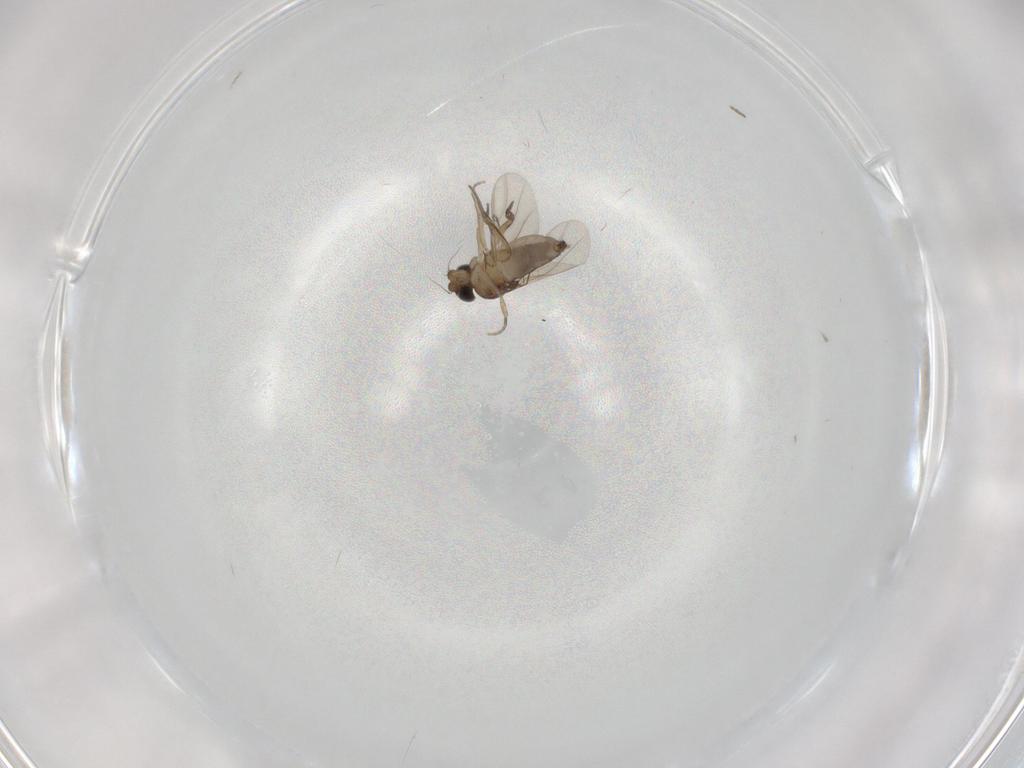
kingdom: Animalia
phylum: Arthropoda
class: Insecta
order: Diptera
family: Phoridae
